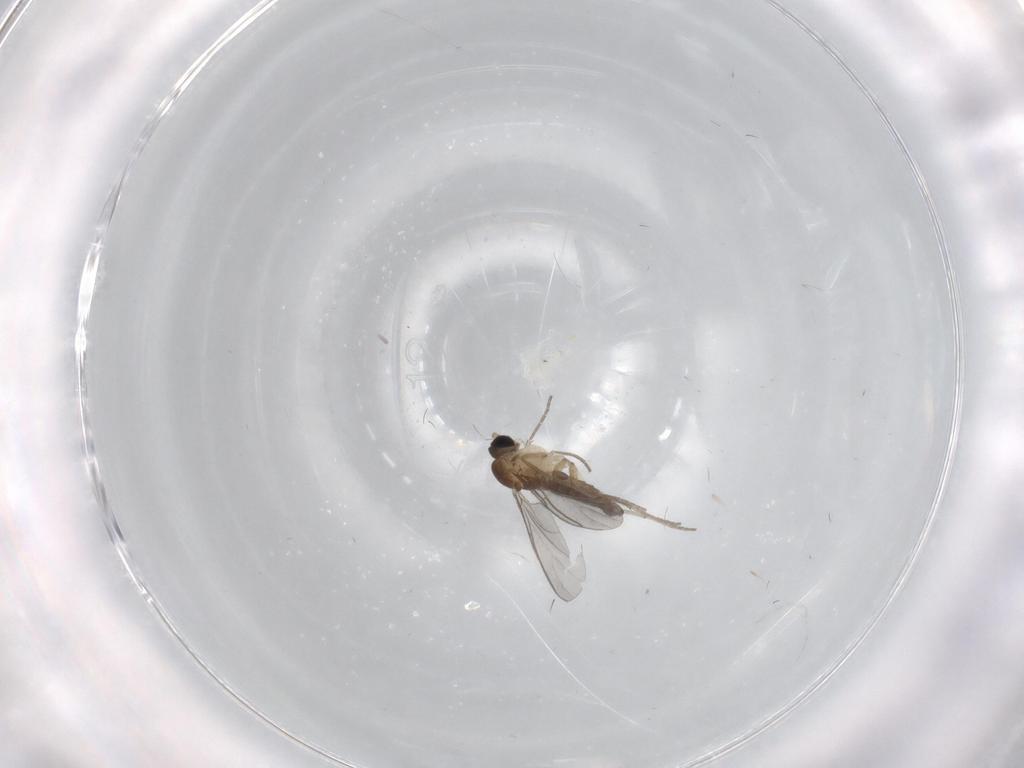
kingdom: Animalia
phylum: Arthropoda
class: Insecta
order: Diptera
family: Sciaridae
